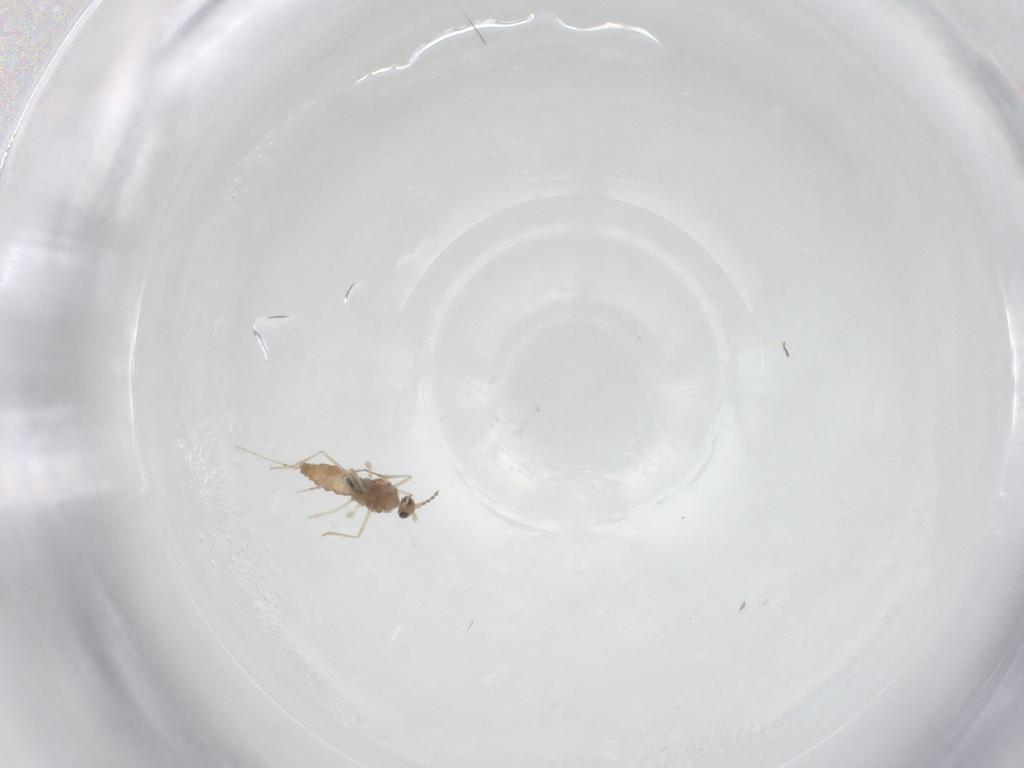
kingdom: Animalia
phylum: Arthropoda
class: Insecta
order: Diptera
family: Cecidomyiidae
